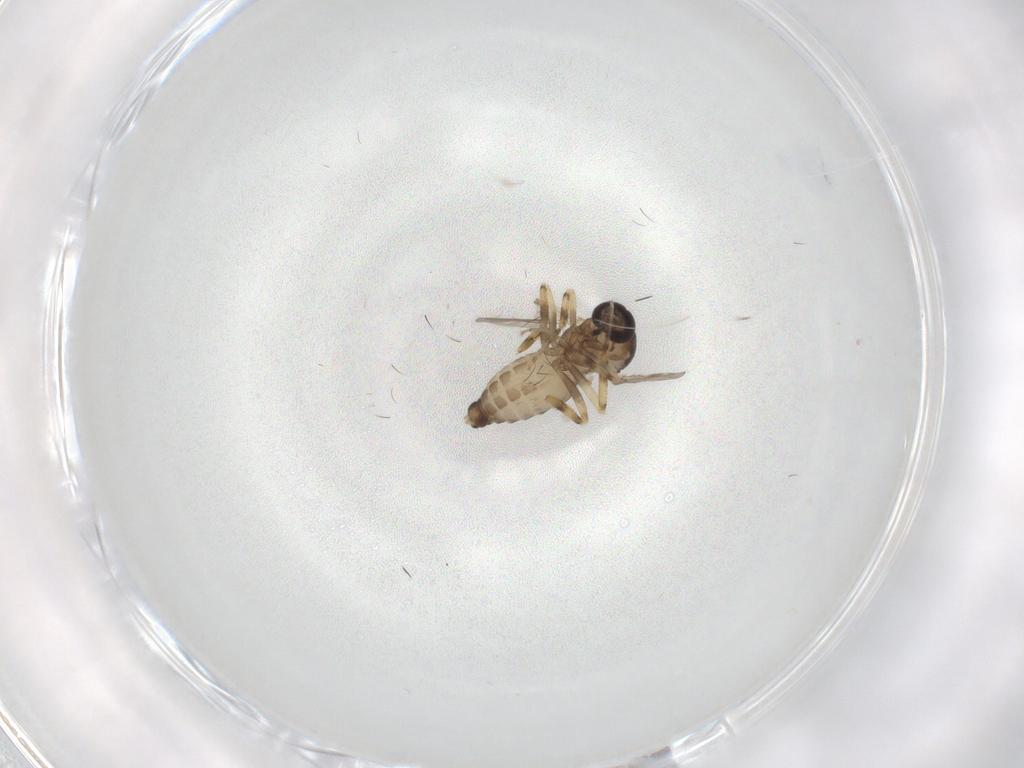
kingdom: Animalia
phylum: Arthropoda
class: Insecta
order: Diptera
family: Ceratopogonidae
